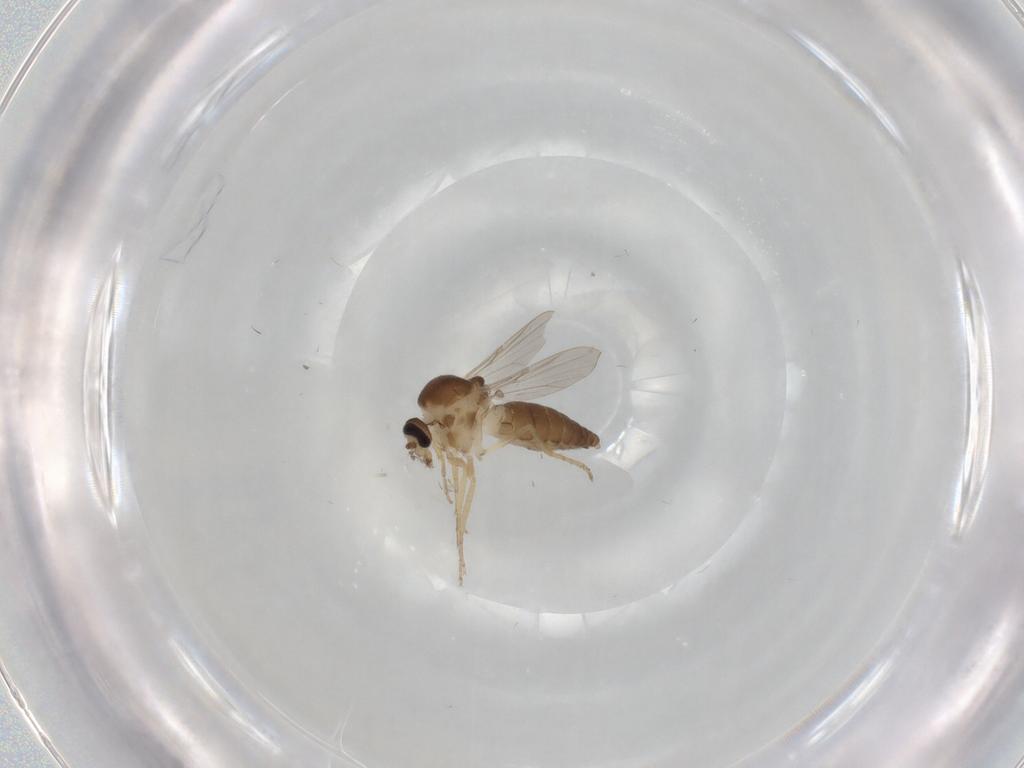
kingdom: Animalia
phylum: Arthropoda
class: Insecta
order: Diptera
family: Ceratopogonidae
